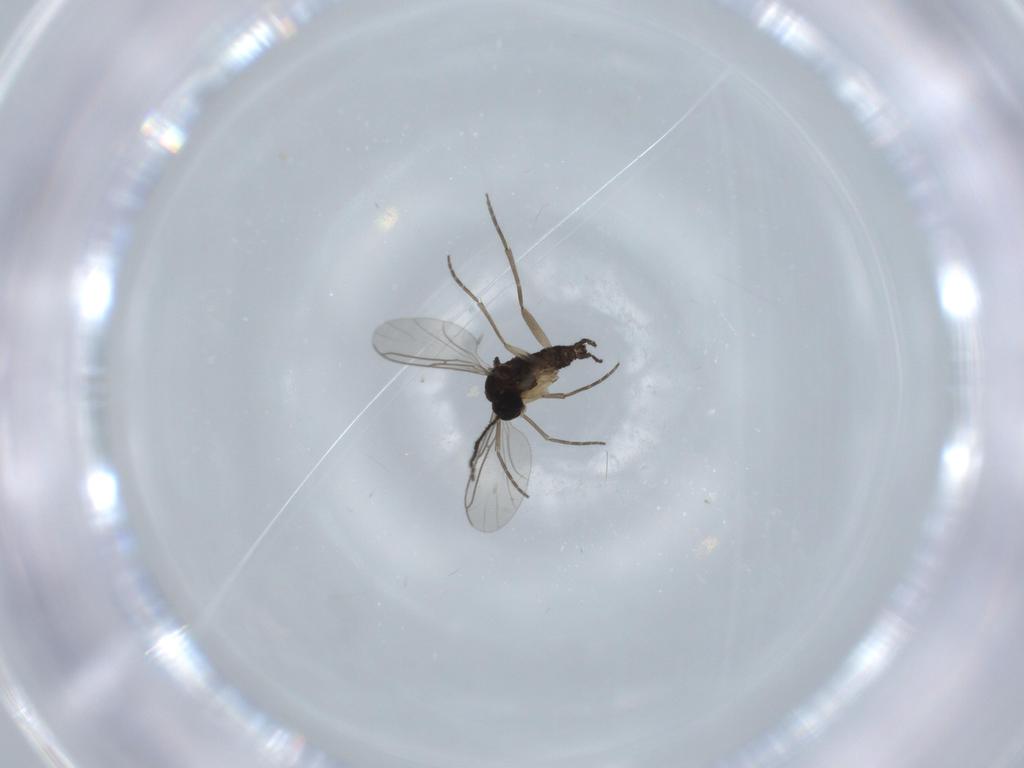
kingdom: Animalia
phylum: Arthropoda
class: Insecta
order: Diptera
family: Sciaridae
